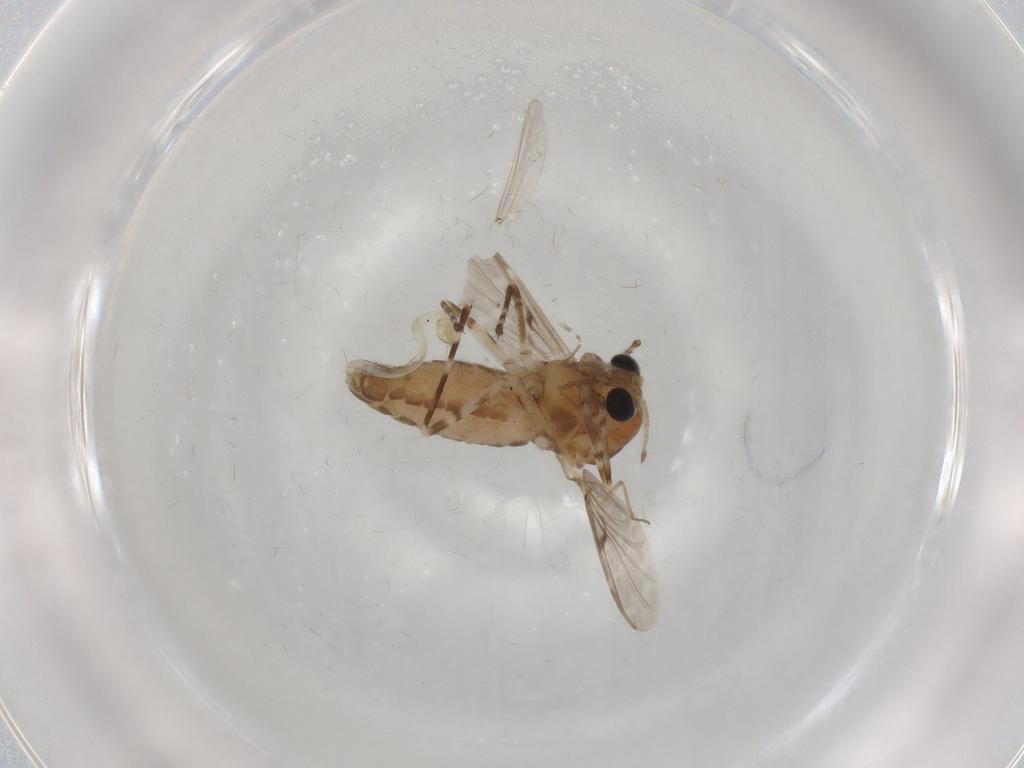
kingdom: Animalia
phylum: Arthropoda
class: Insecta
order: Diptera
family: Chironomidae
